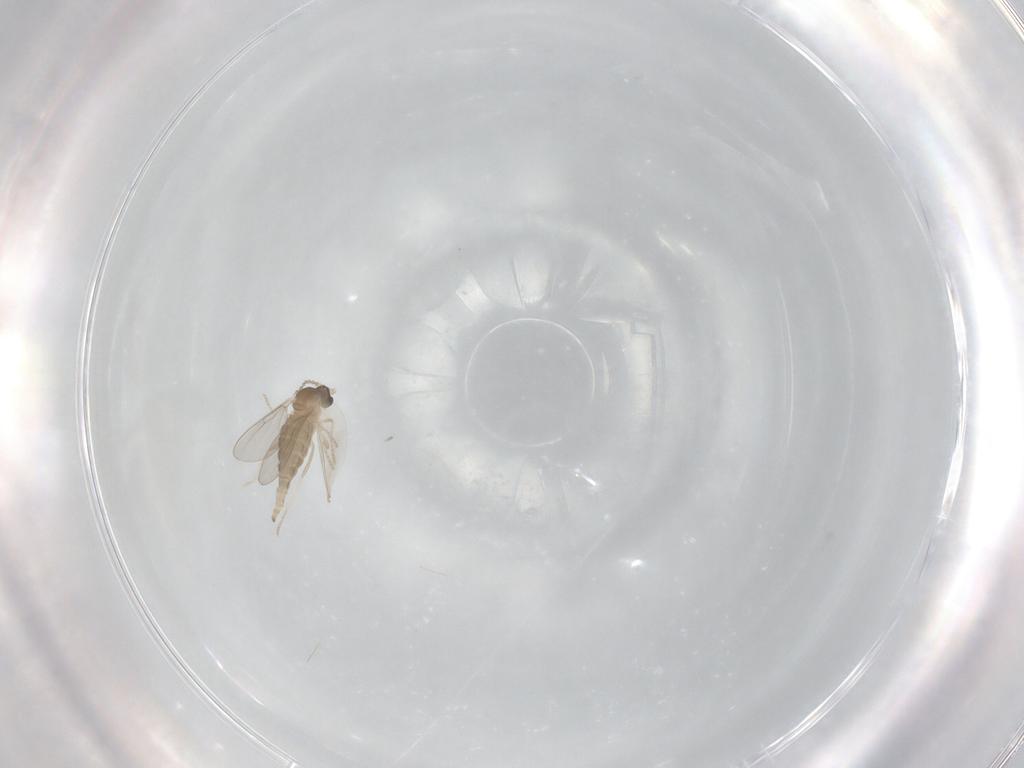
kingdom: Animalia
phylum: Arthropoda
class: Insecta
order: Diptera
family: Cecidomyiidae
